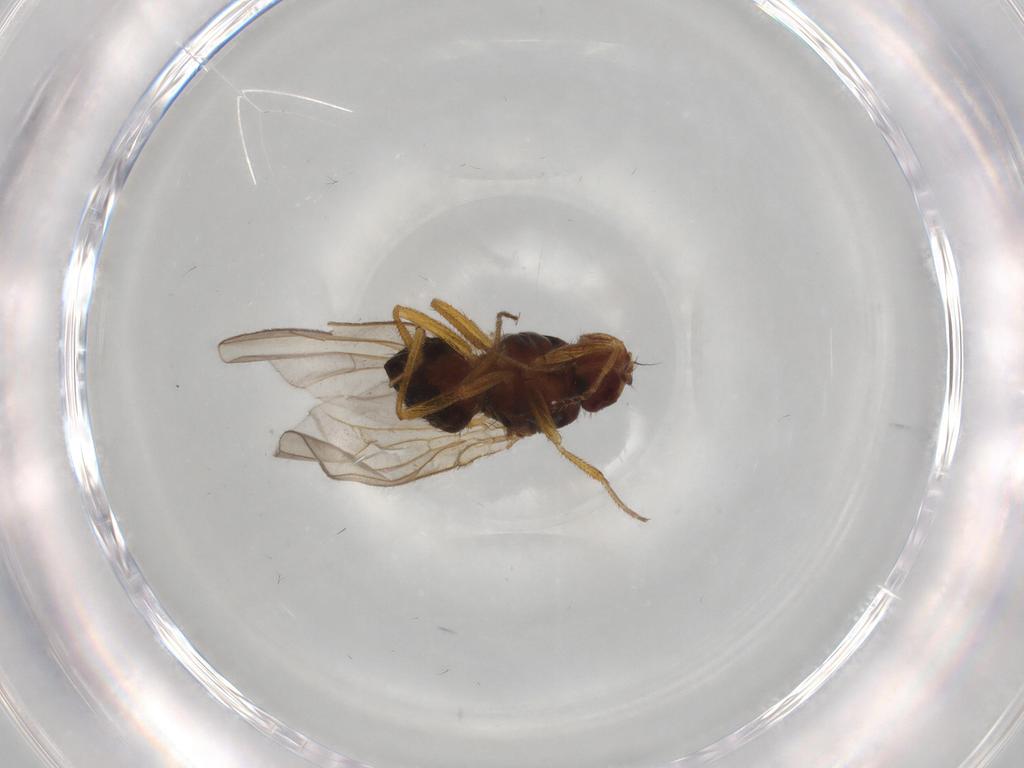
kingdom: Animalia
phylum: Arthropoda
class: Insecta
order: Diptera
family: Drosophilidae
